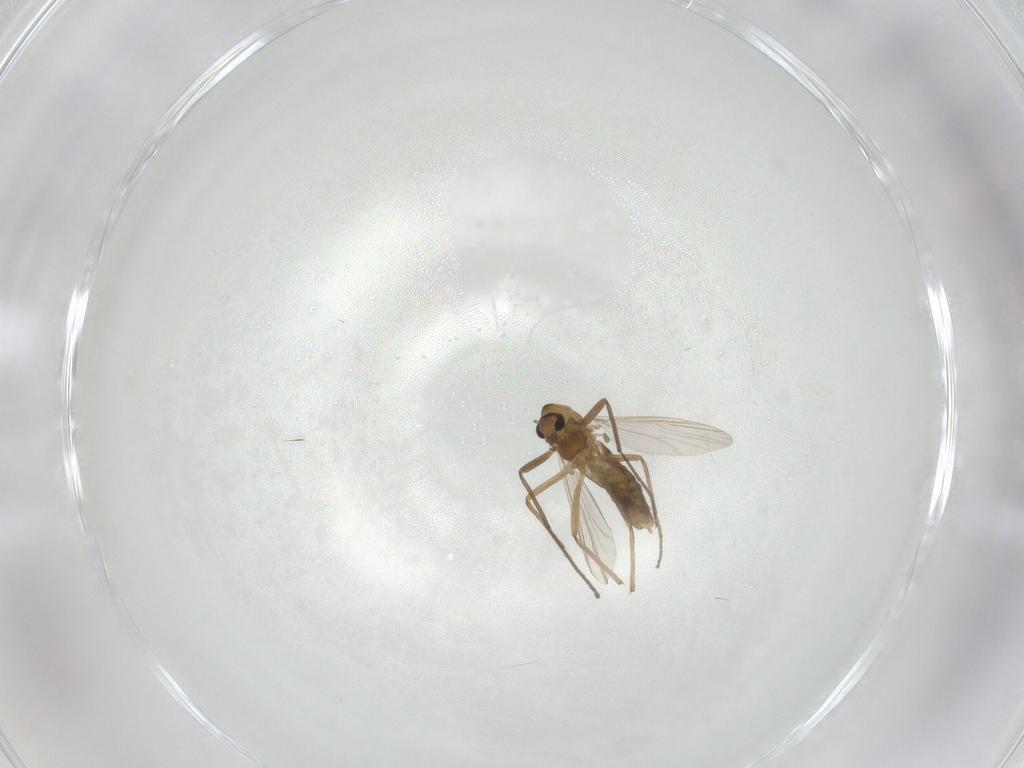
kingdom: Animalia
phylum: Arthropoda
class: Insecta
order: Diptera
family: Chironomidae
